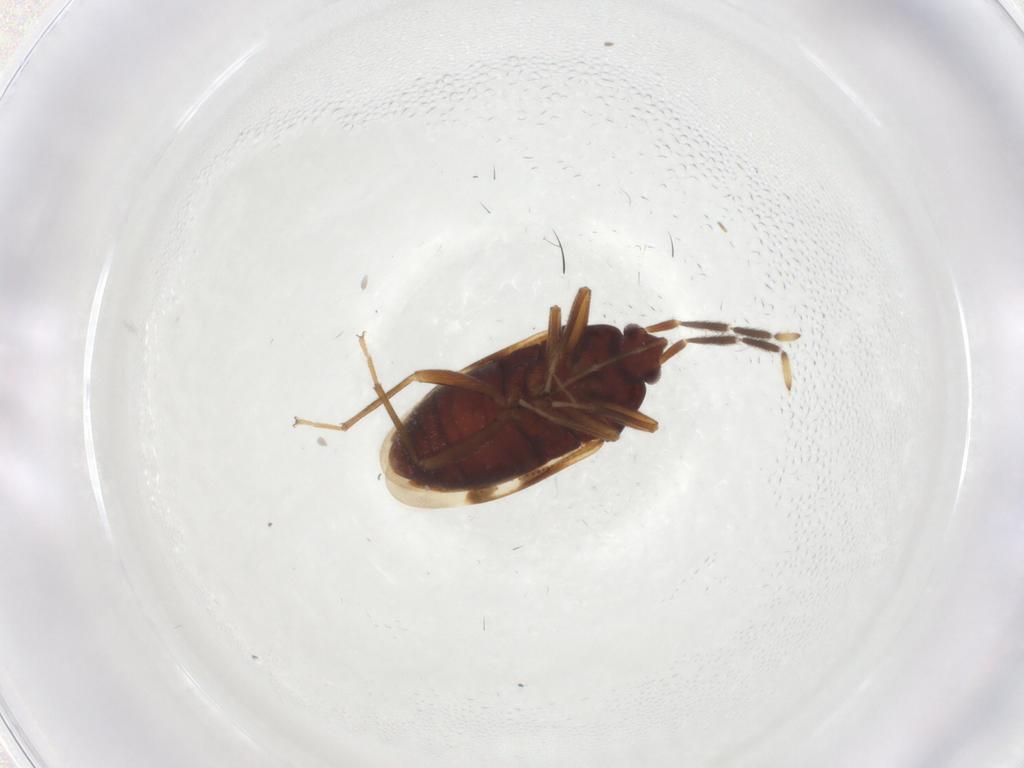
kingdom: Animalia
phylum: Arthropoda
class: Insecta
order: Hemiptera
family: Rhyparochromidae
